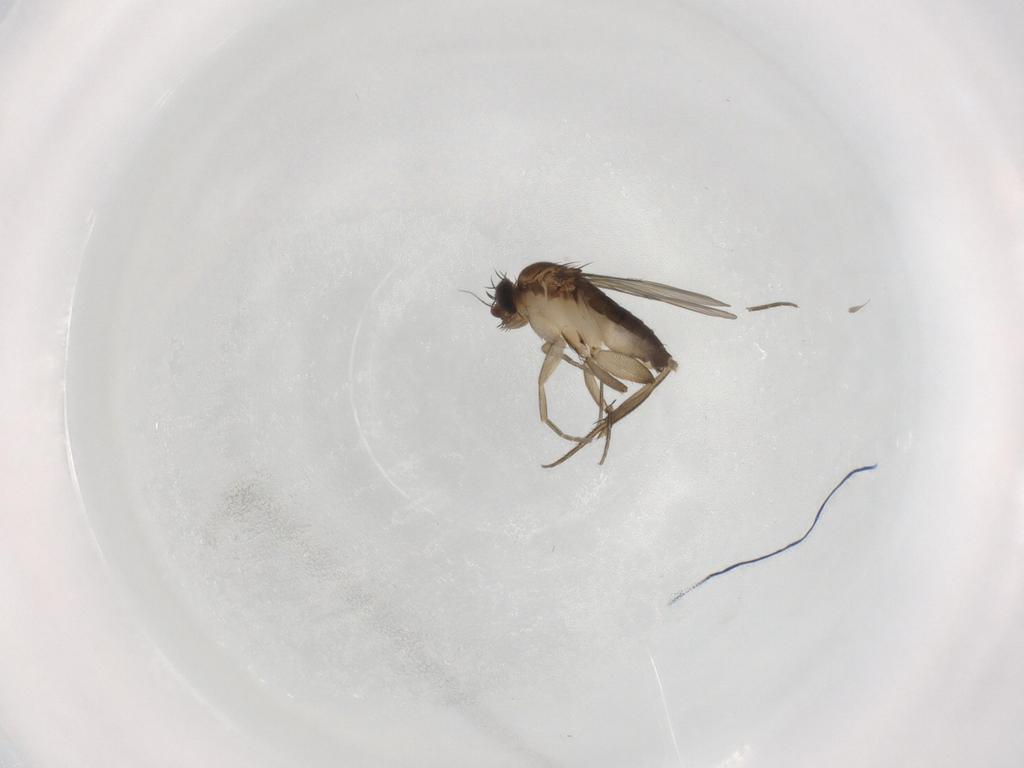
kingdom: Animalia
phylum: Arthropoda
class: Insecta
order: Diptera
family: Phoridae
